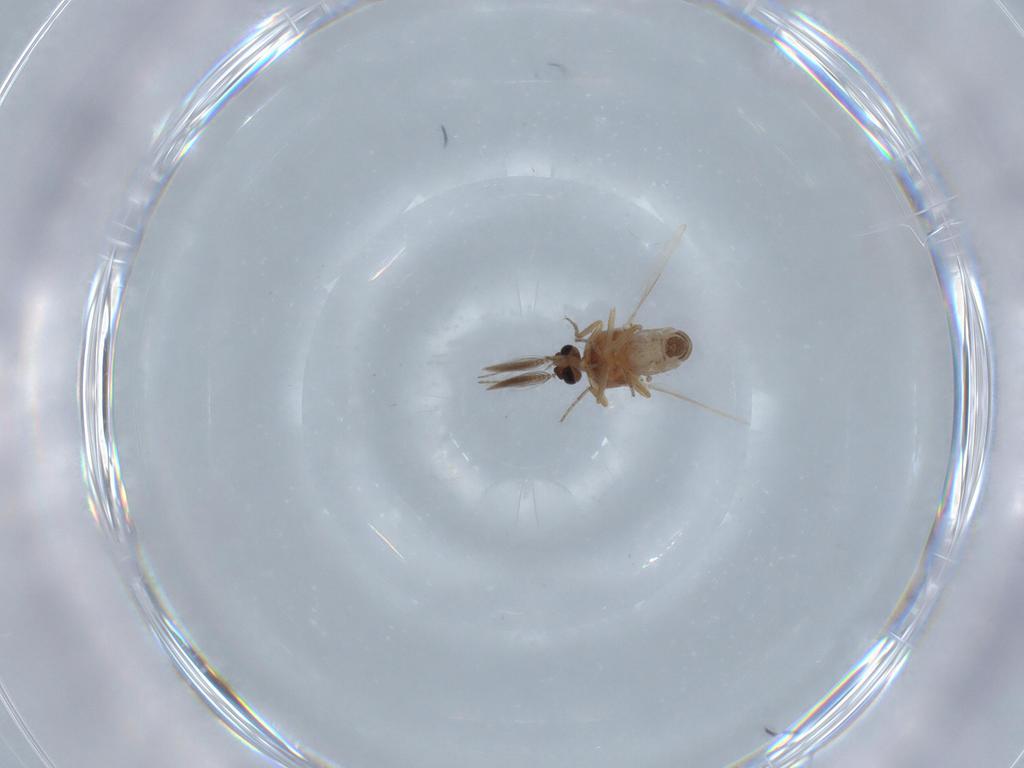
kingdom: Animalia
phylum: Arthropoda
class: Insecta
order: Diptera
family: Ceratopogonidae
